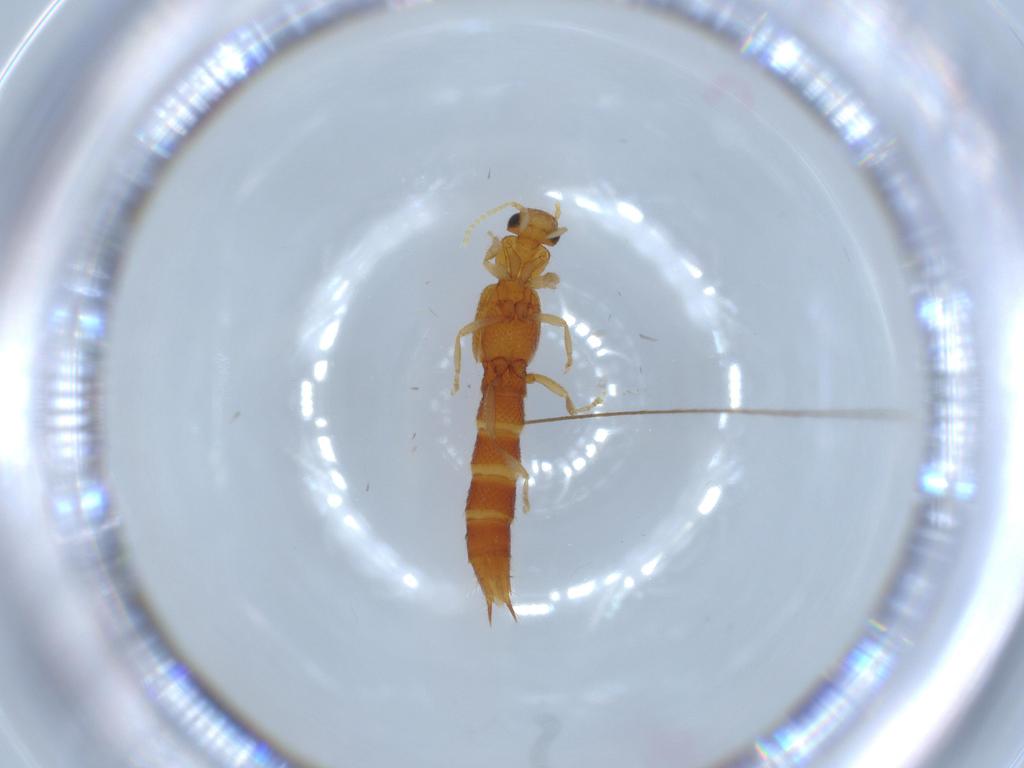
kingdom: Animalia
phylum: Arthropoda
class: Insecta
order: Coleoptera
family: Staphylinidae
